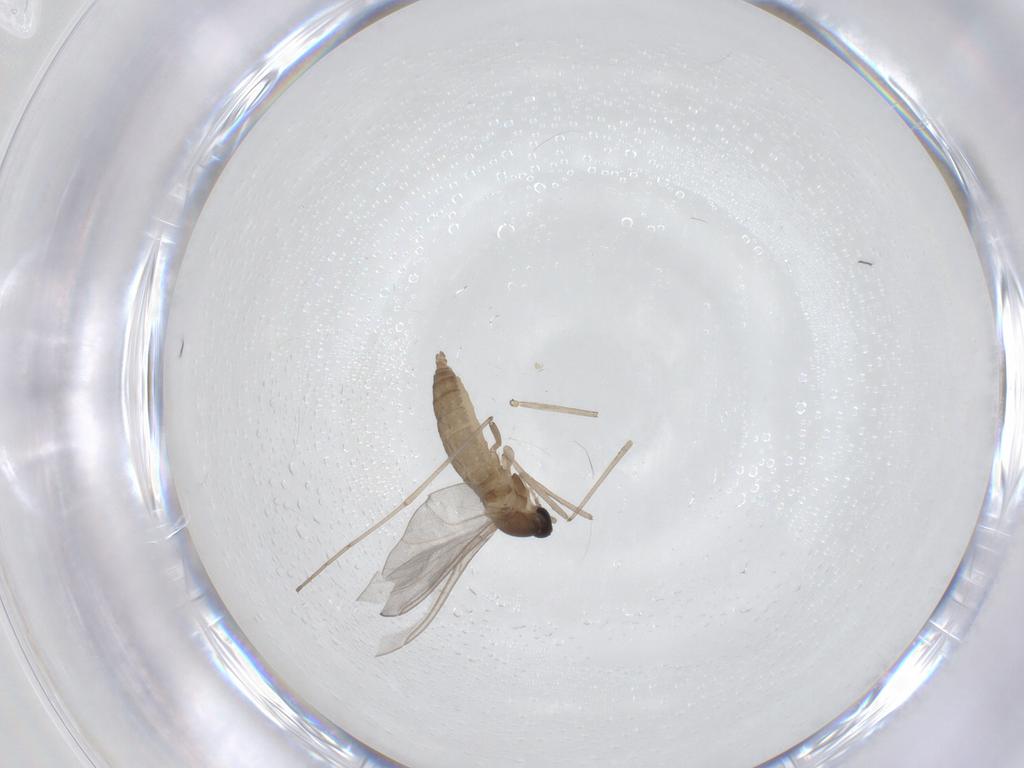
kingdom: Animalia
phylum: Arthropoda
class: Insecta
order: Diptera
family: Cecidomyiidae
